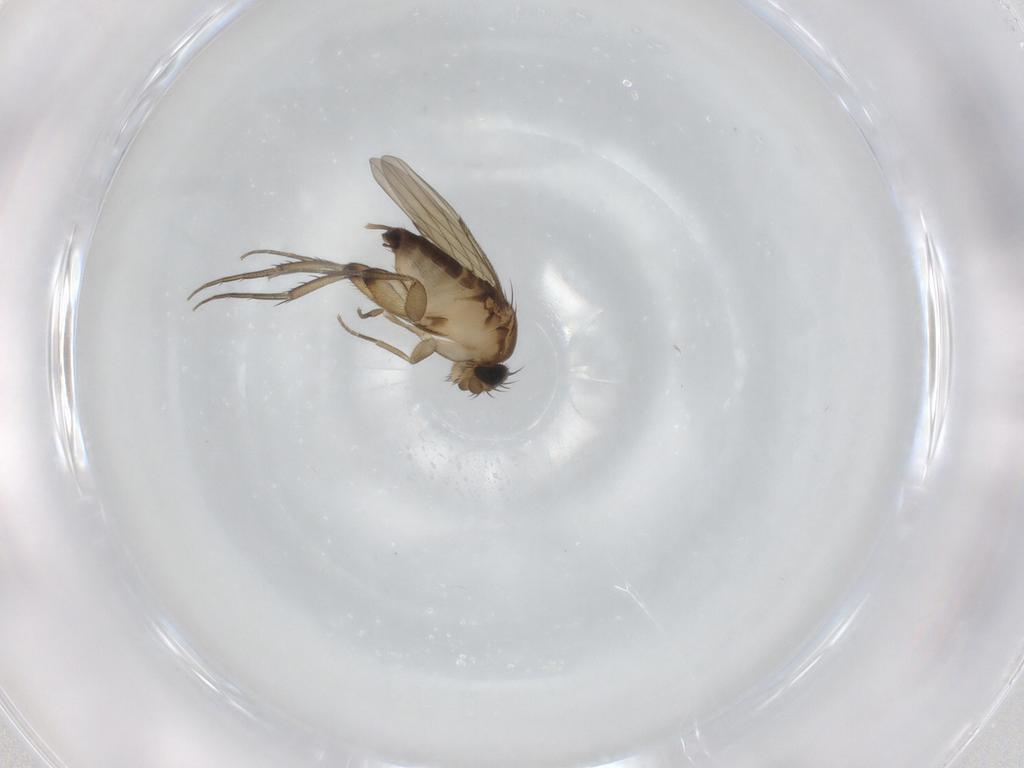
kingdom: Animalia
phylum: Arthropoda
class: Insecta
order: Diptera
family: Phoridae
